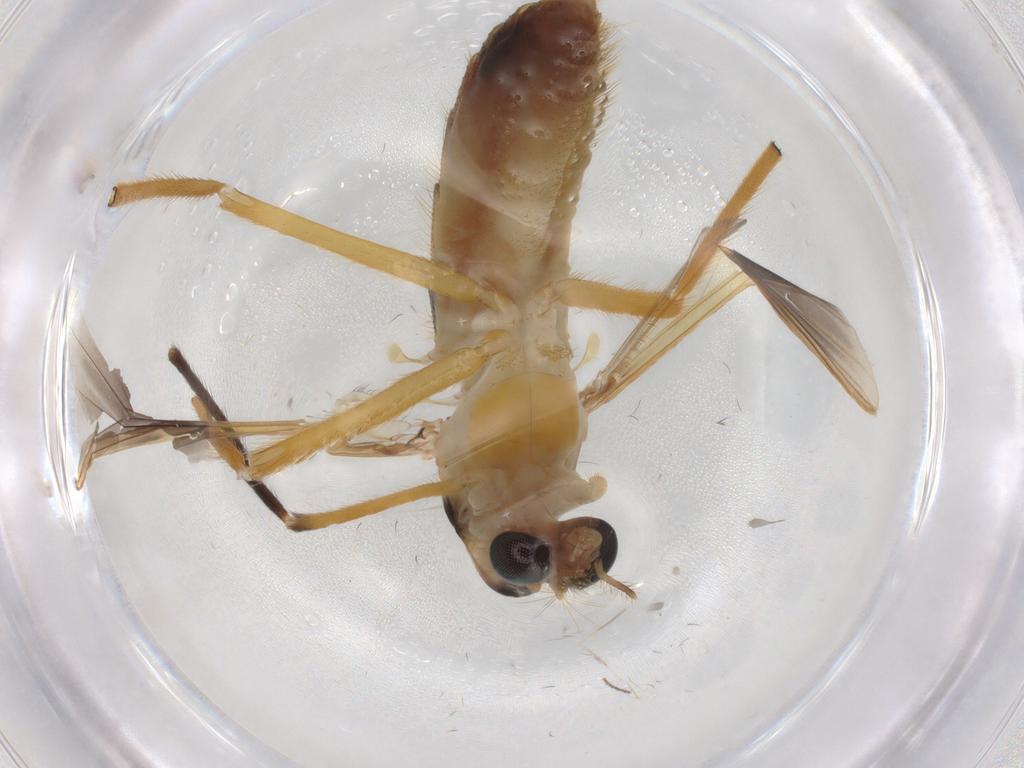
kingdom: Animalia
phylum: Arthropoda
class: Insecta
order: Diptera
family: Chironomidae
